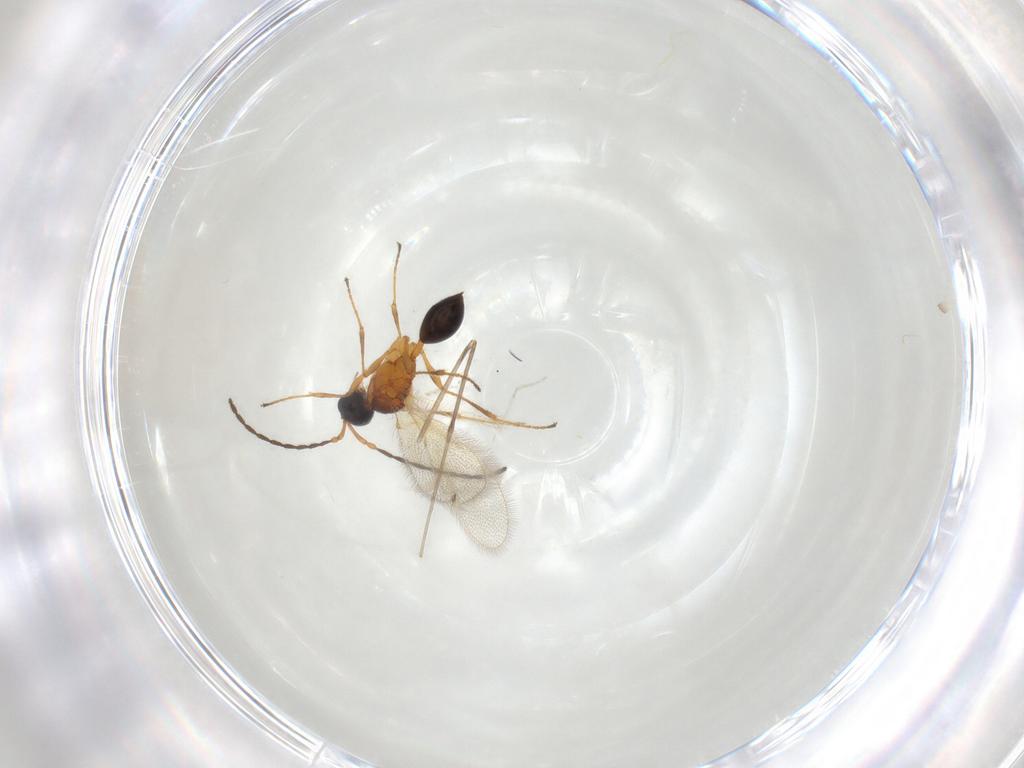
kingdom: Animalia
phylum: Arthropoda
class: Insecta
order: Hymenoptera
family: Diapriidae
